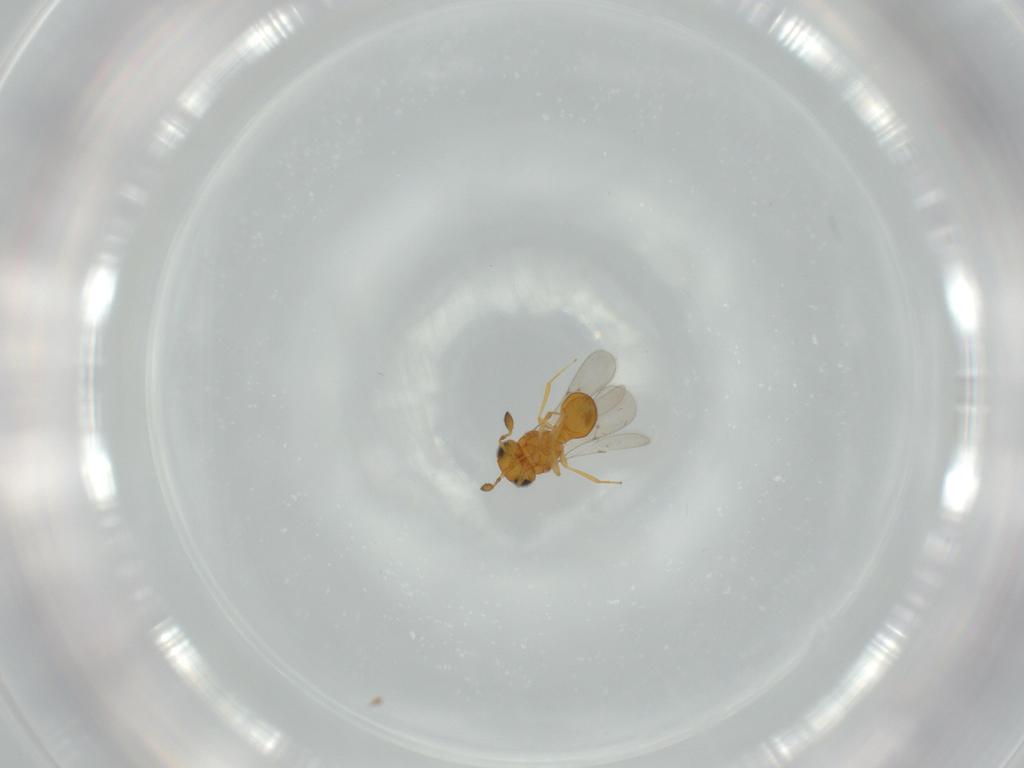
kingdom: Animalia
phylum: Arthropoda
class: Insecta
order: Hymenoptera
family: Scelionidae
